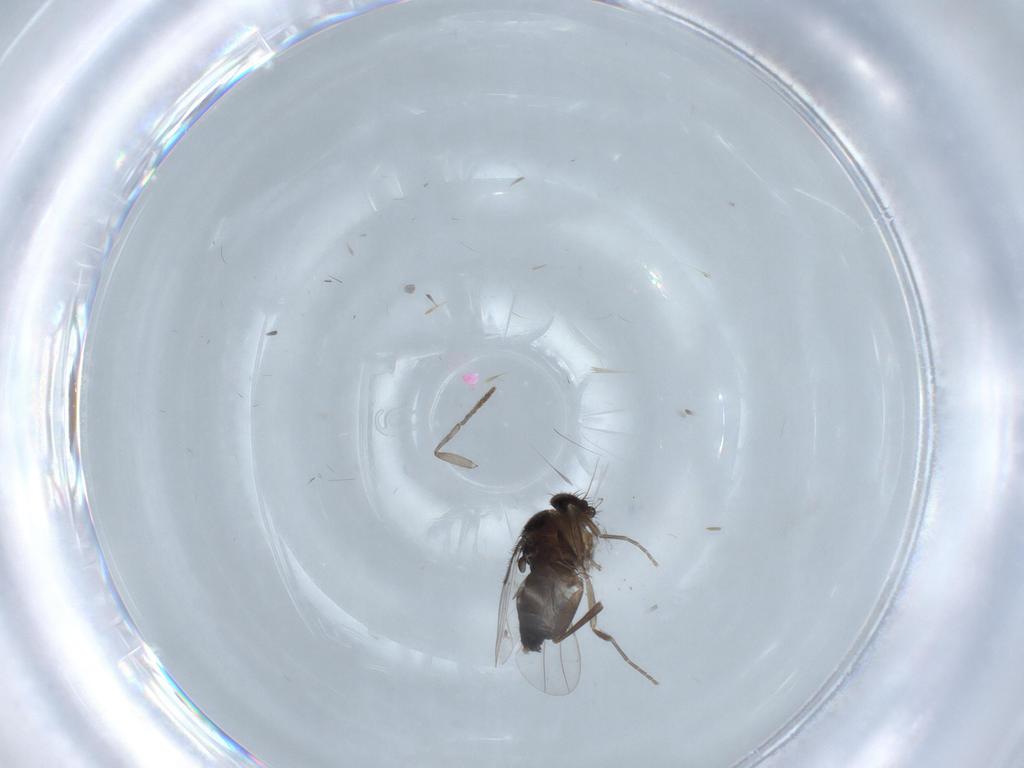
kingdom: Animalia
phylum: Arthropoda
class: Insecta
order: Diptera
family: Phoridae
